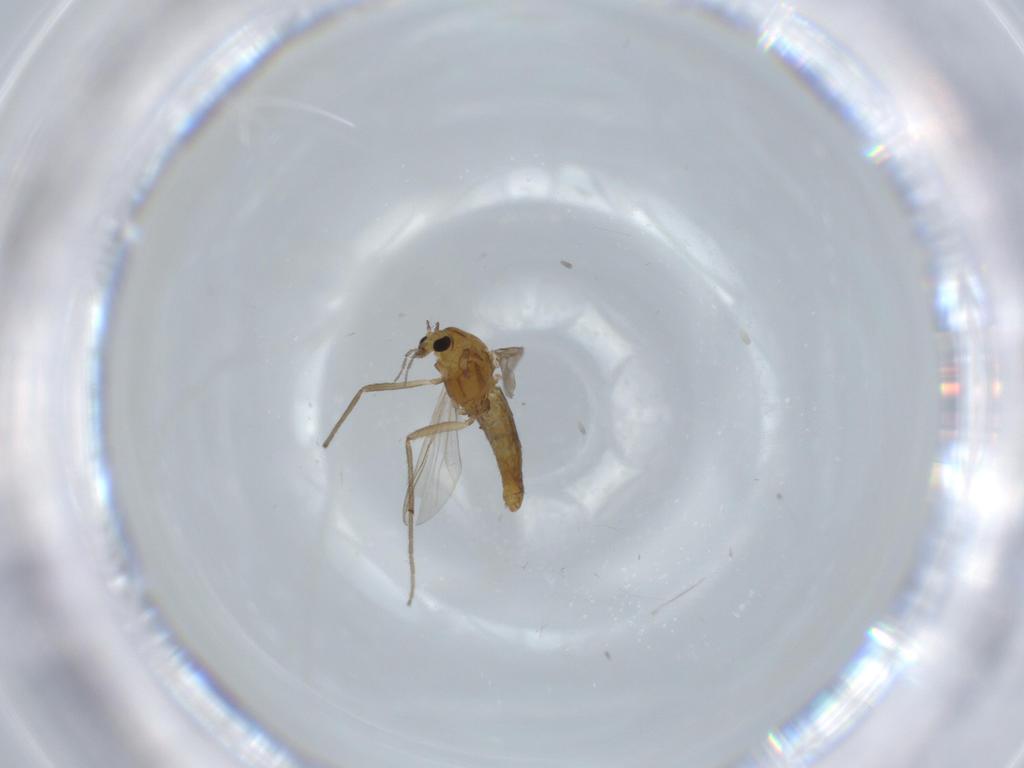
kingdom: Animalia
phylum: Arthropoda
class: Insecta
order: Diptera
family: Chironomidae
